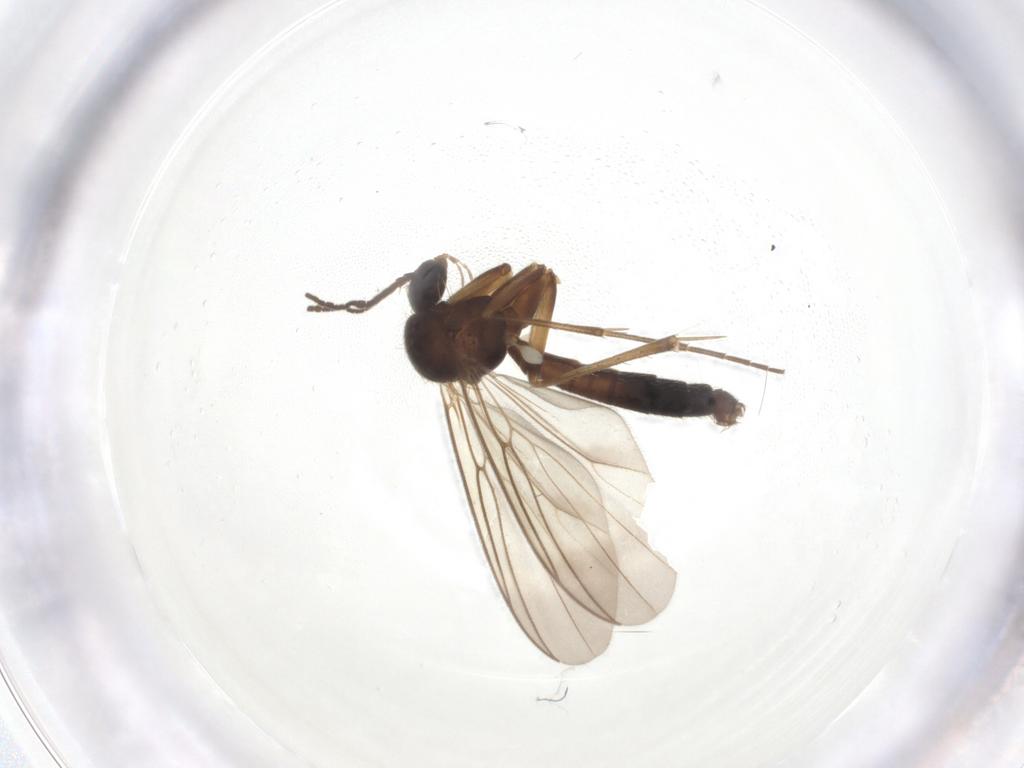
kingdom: Animalia
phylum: Arthropoda
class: Insecta
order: Diptera
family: Mycetophilidae
